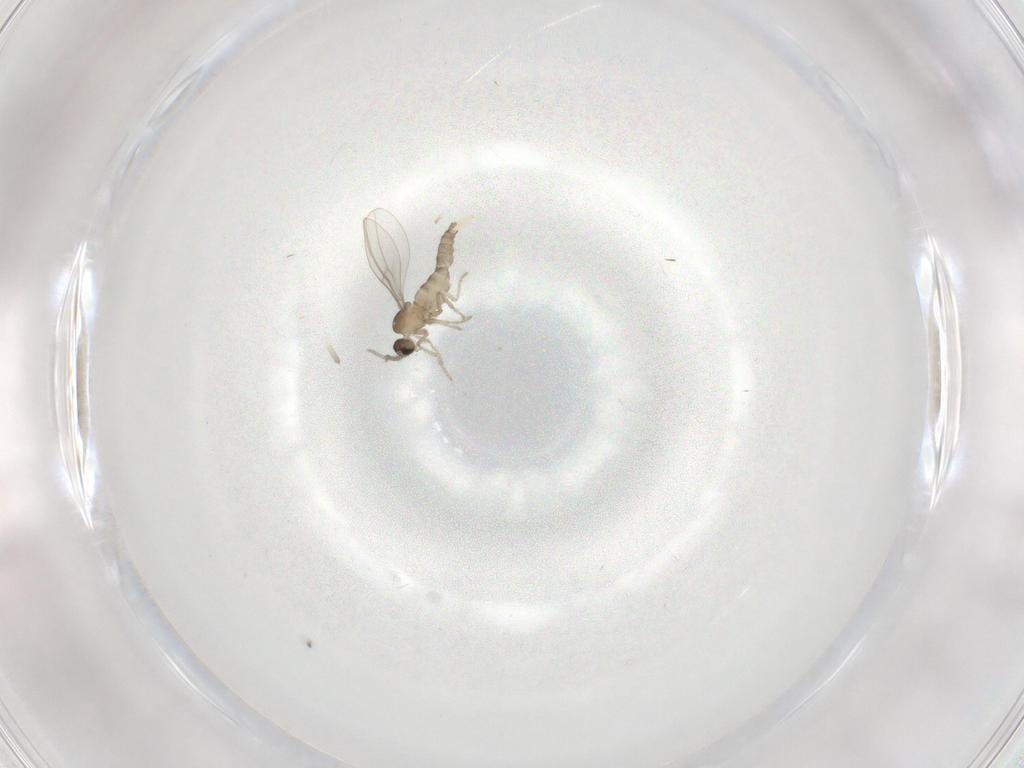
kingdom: Animalia
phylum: Arthropoda
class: Insecta
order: Diptera
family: Cecidomyiidae
